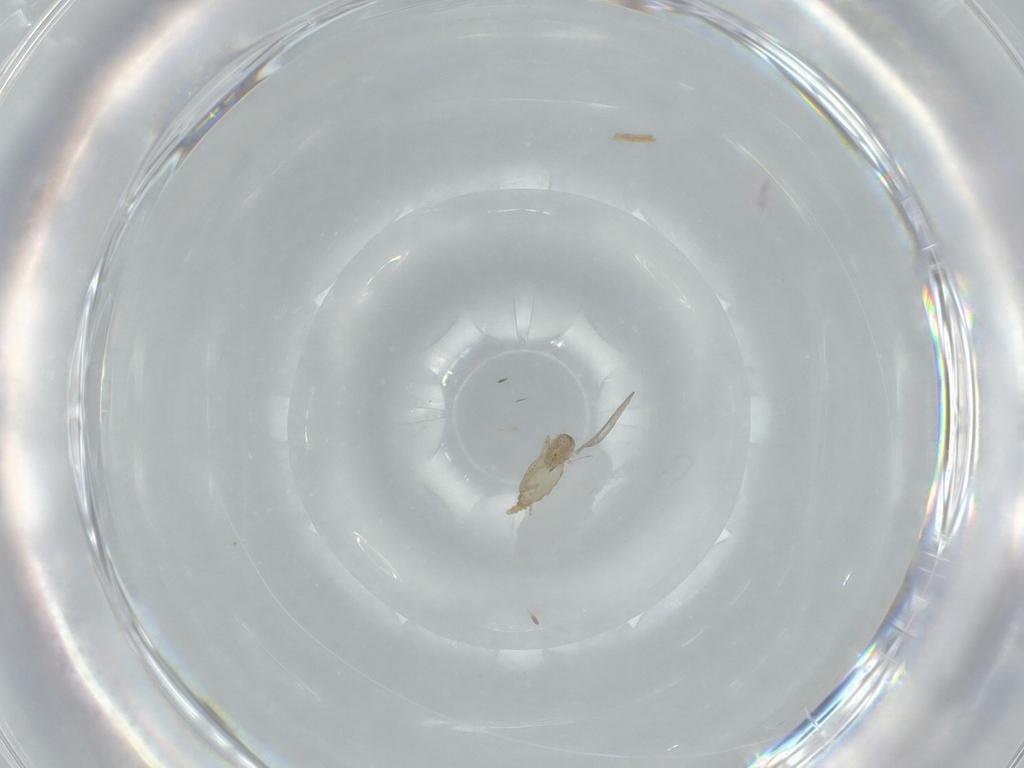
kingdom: Animalia
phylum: Arthropoda
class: Insecta
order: Diptera
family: Cecidomyiidae
